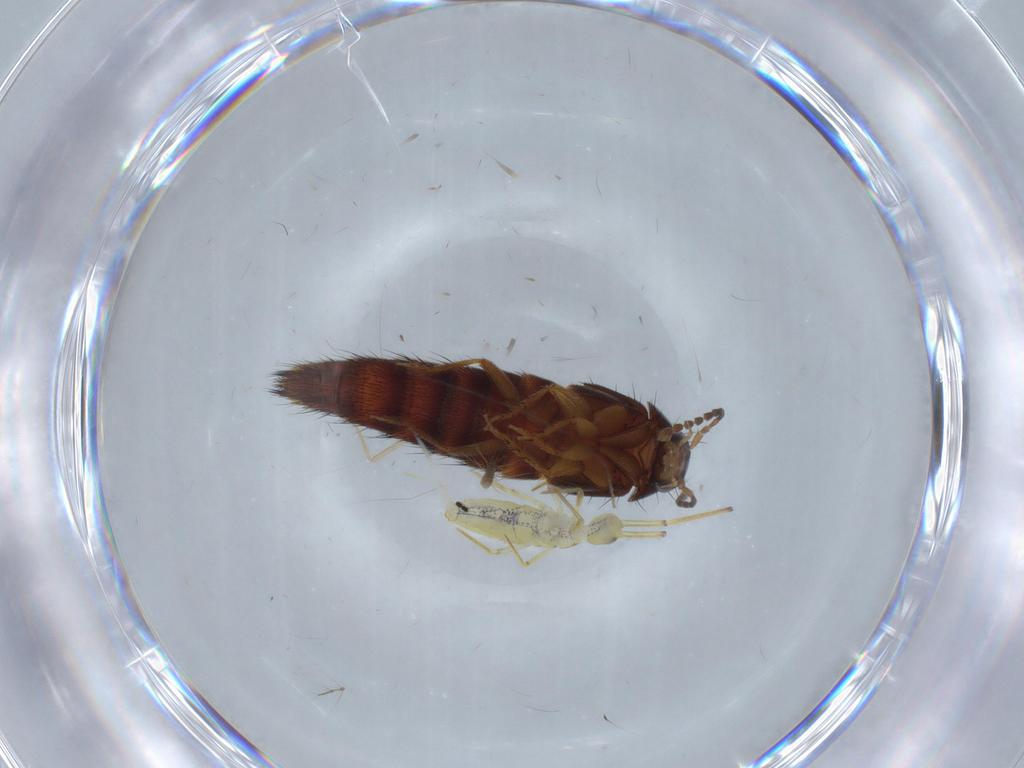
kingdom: Animalia
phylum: Arthropoda
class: Insecta
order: Coleoptera
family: Staphylinidae
